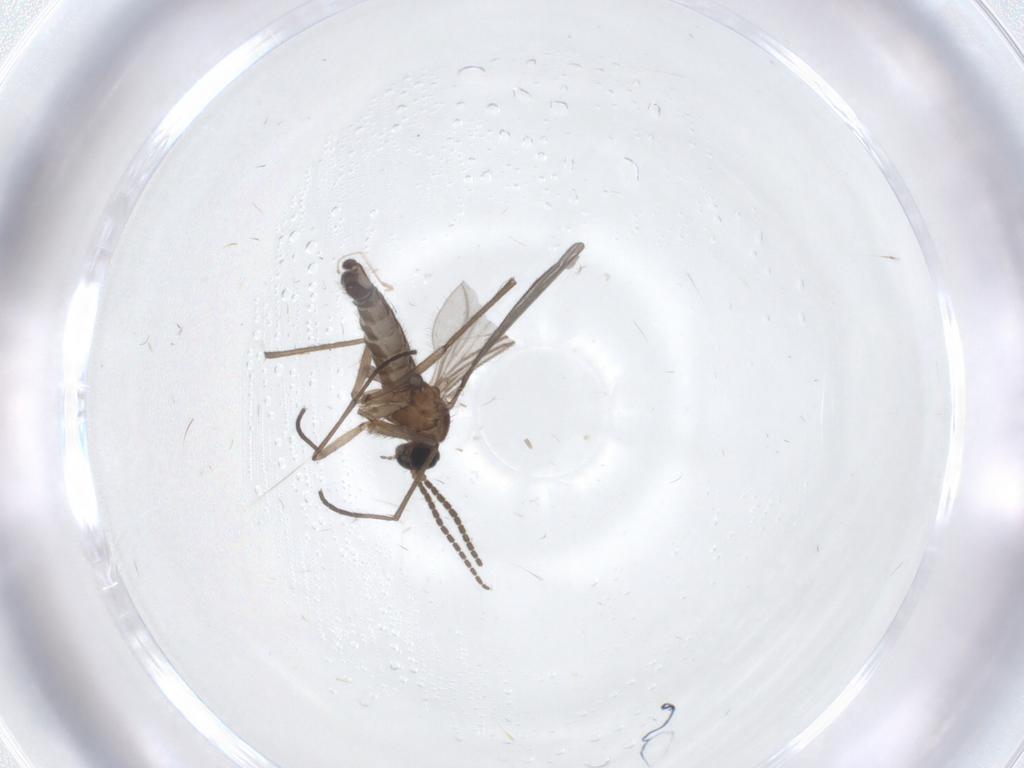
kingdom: Animalia
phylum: Arthropoda
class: Insecta
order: Diptera
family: Sciaridae
